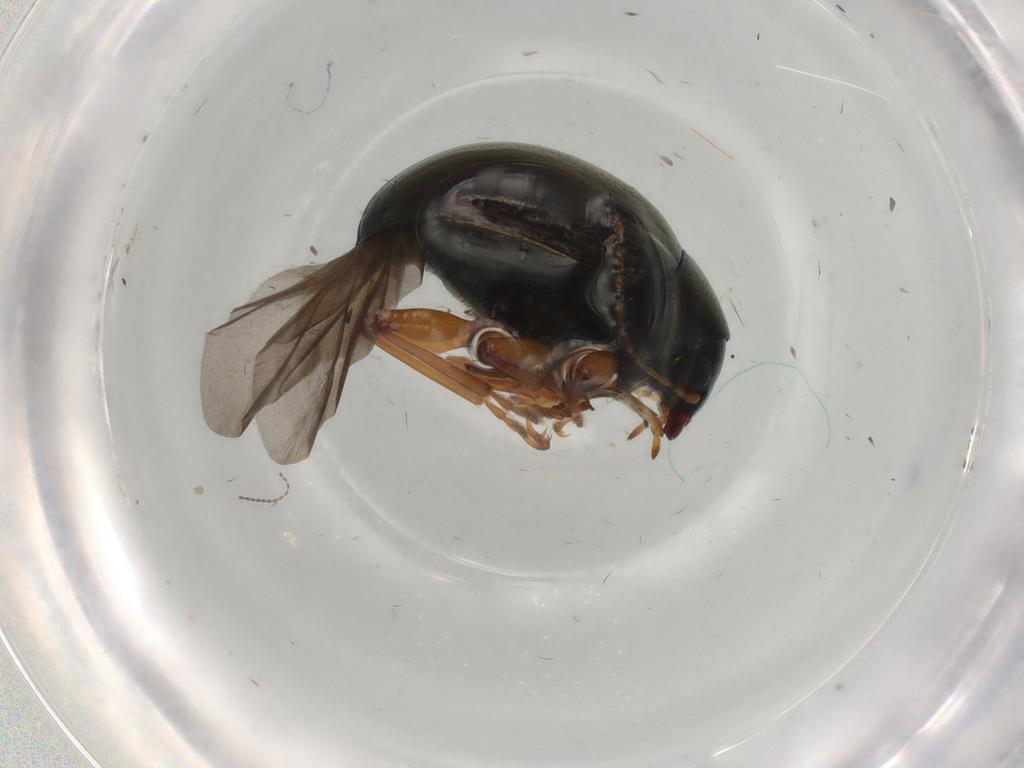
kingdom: Animalia
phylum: Arthropoda
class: Insecta
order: Coleoptera
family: Chrysomelidae
